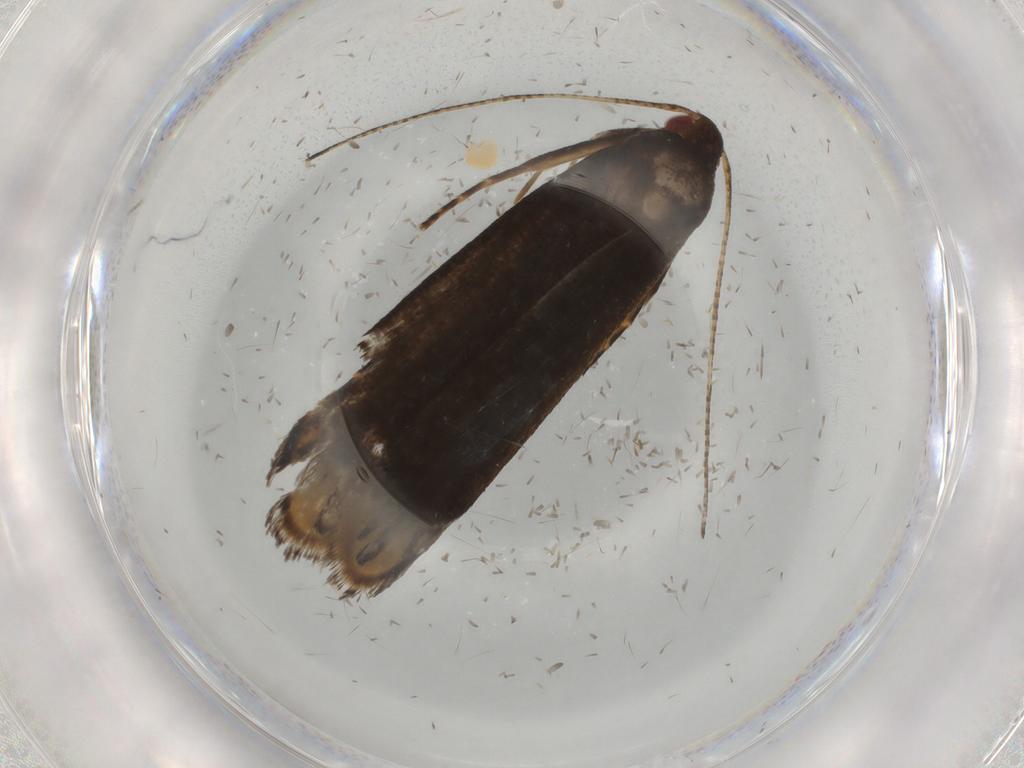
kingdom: Animalia
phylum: Arthropoda
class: Insecta
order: Lepidoptera
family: Gelechiidae
